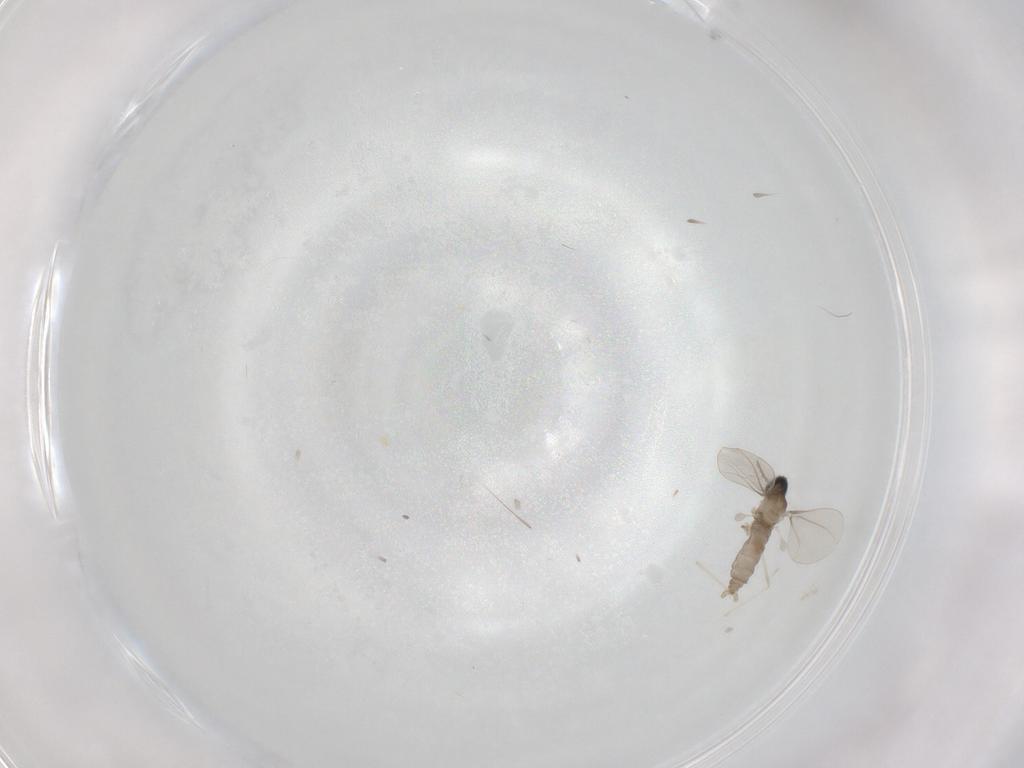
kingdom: Animalia
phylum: Arthropoda
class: Insecta
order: Diptera
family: Cecidomyiidae
